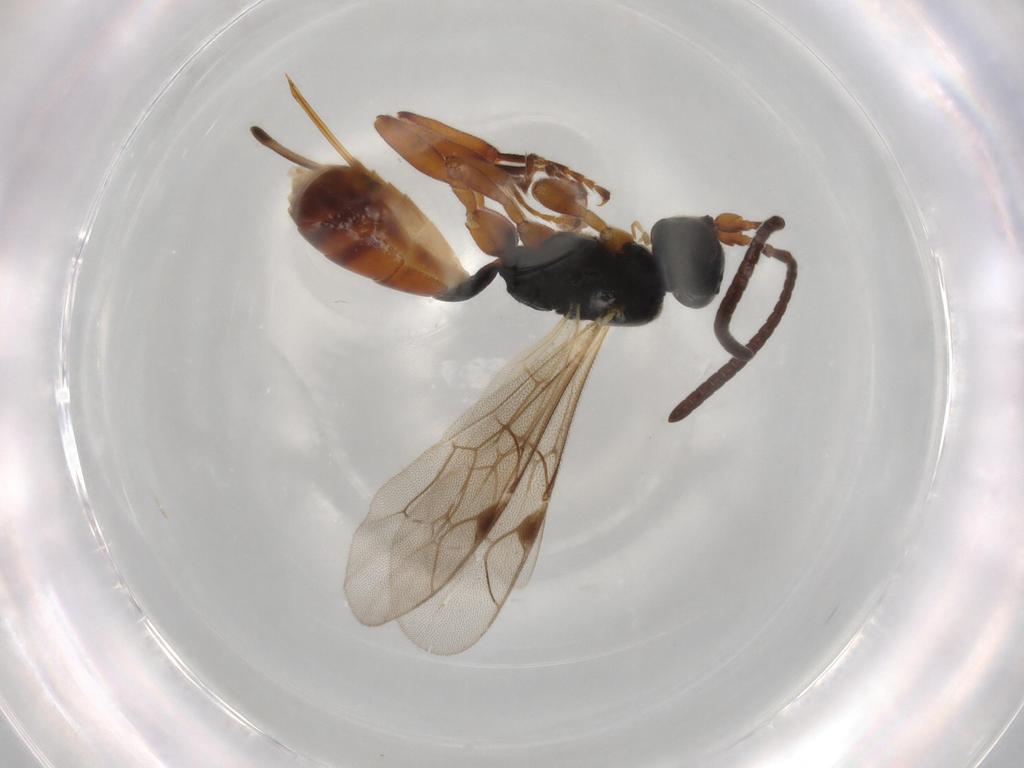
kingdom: Animalia
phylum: Arthropoda
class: Insecta
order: Hymenoptera
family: Ichneumonidae
